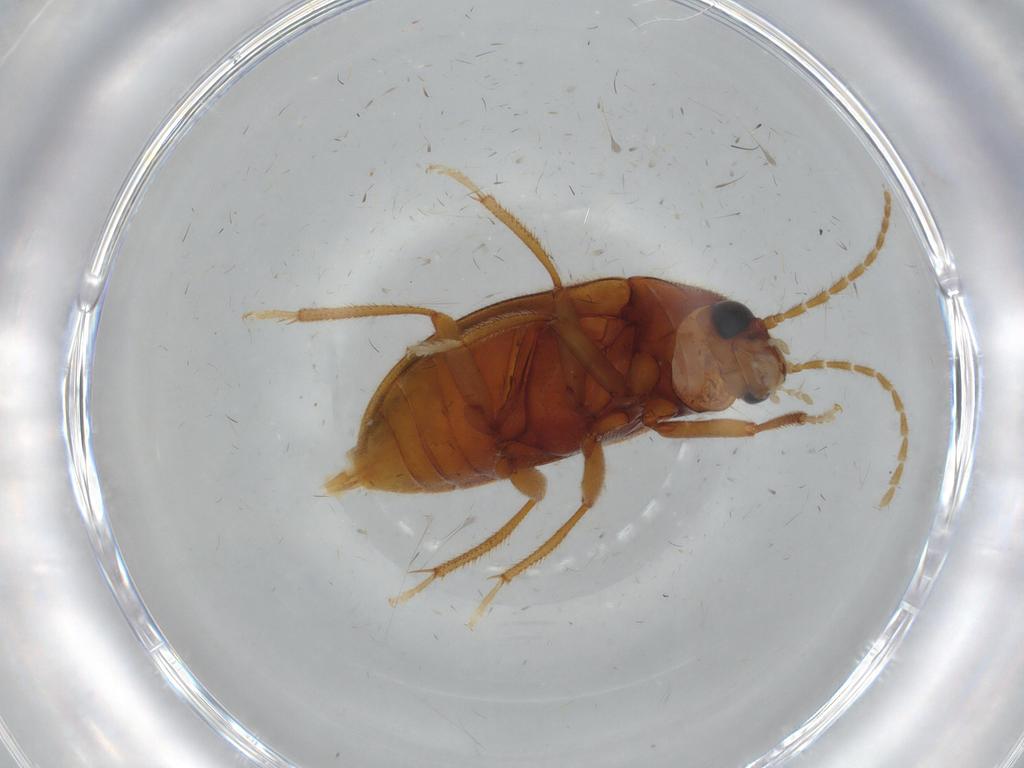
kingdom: Animalia
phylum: Arthropoda
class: Insecta
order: Coleoptera
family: Ptilodactylidae
